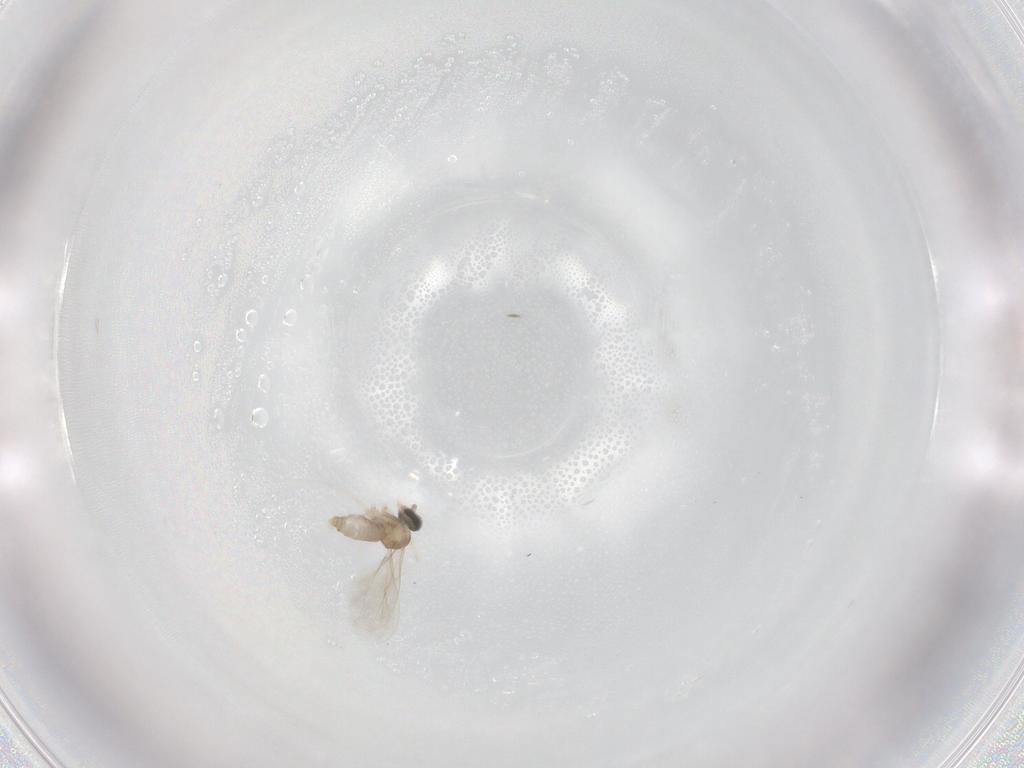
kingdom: Animalia
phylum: Arthropoda
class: Insecta
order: Diptera
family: Cecidomyiidae
